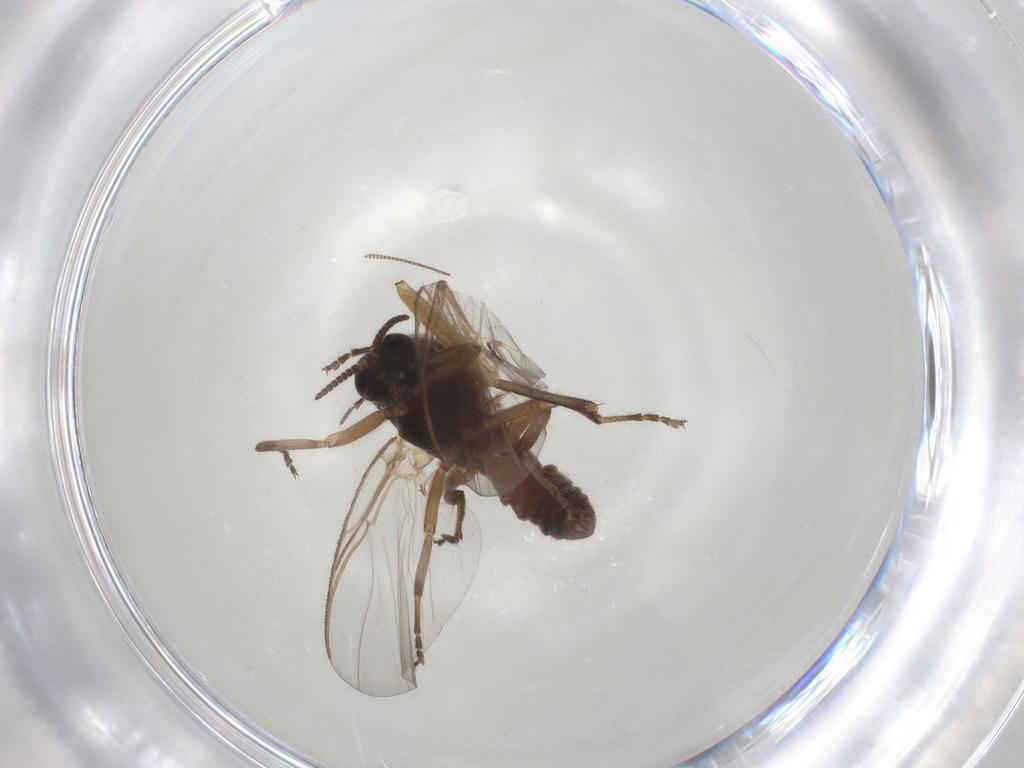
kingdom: Animalia
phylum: Arthropoda
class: Insecta
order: Diptera
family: Simuliidae
